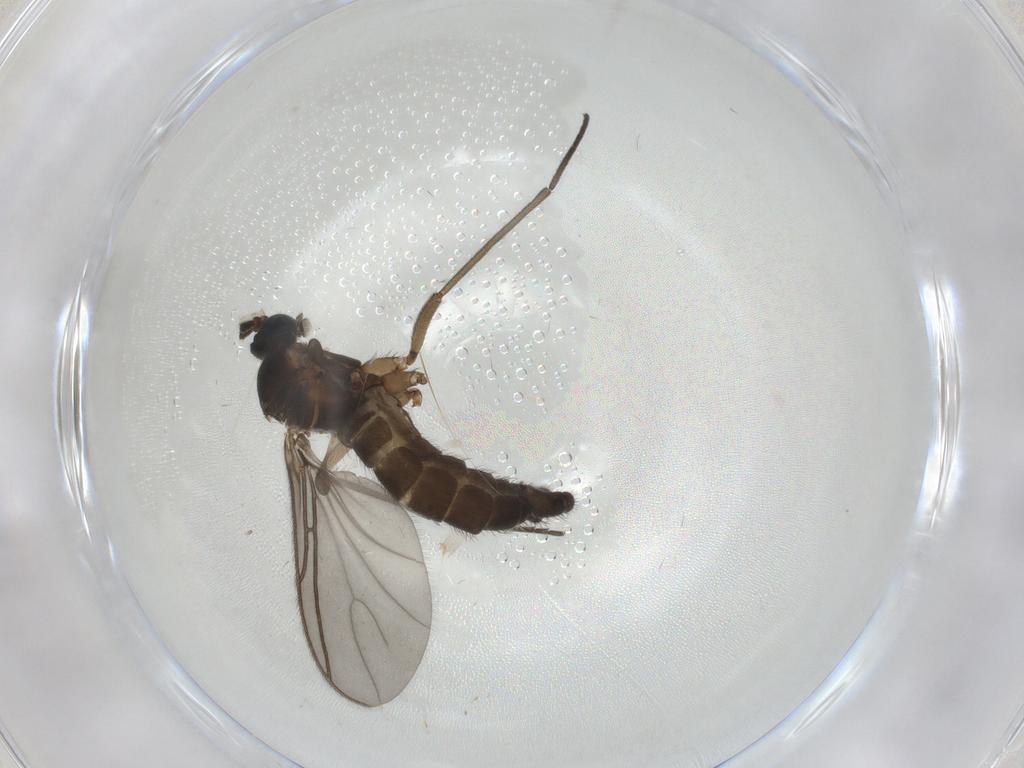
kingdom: Animalia
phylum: Arthropoda
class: Insecta
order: Diptera
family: Sciaridae
